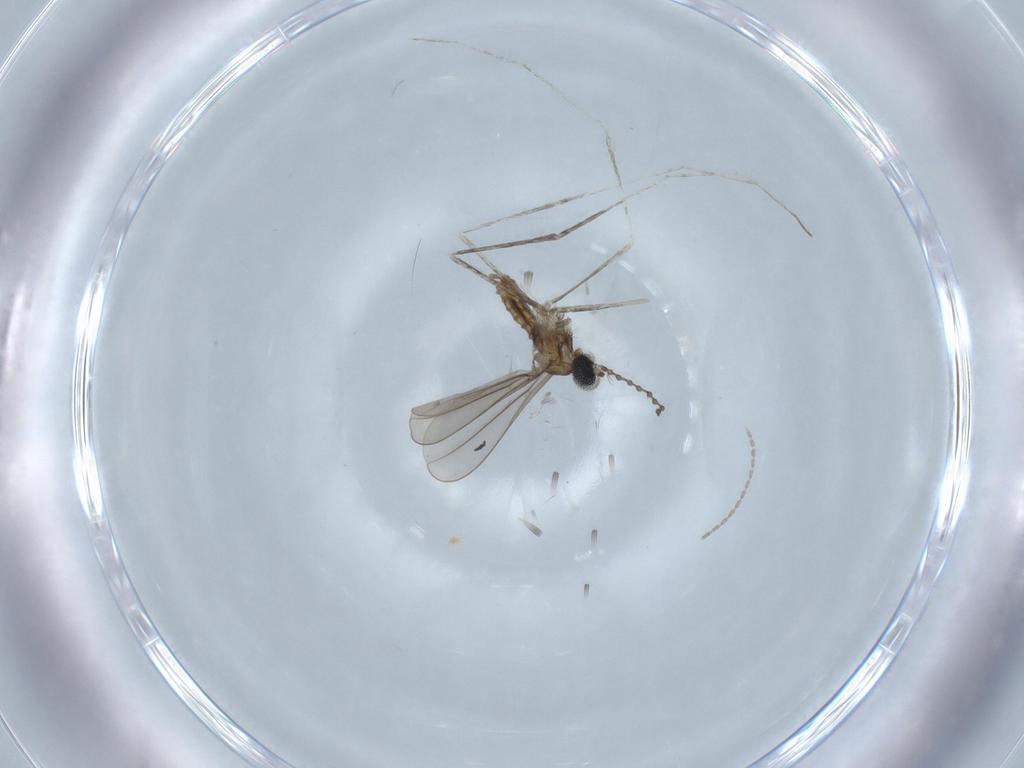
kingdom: Animalia
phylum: Arthropoda
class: Insecta
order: Diptera
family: Cecidomyiidae
